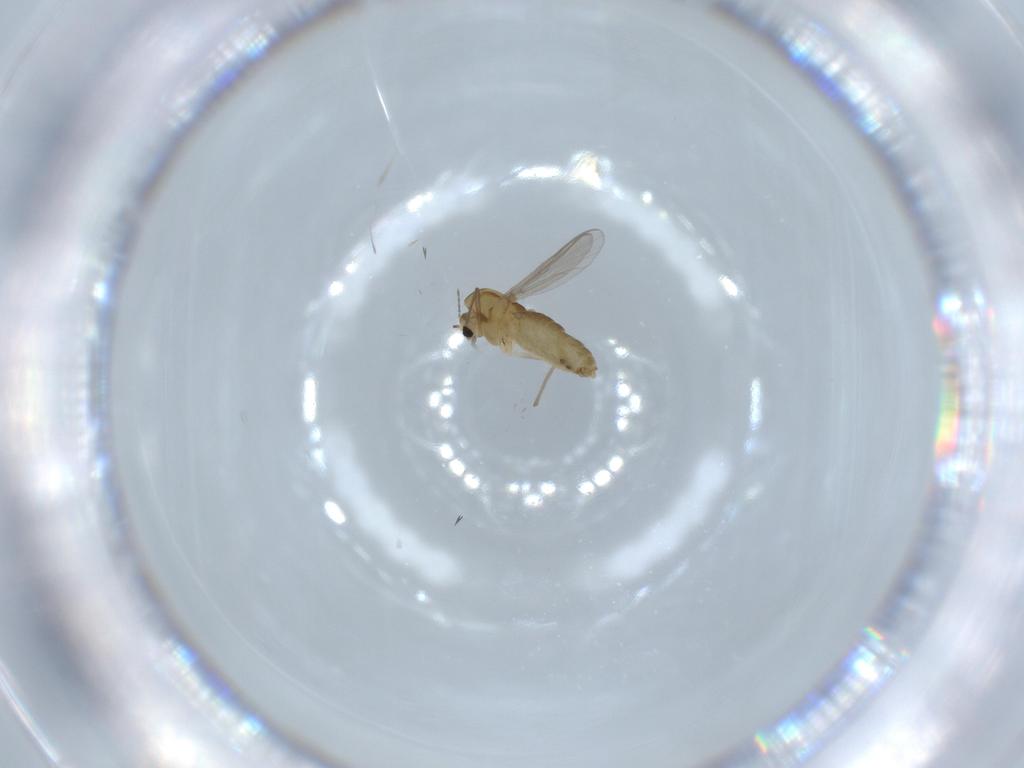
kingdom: Animalia
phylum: Arthropoda
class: Insecta
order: Diptera
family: Chironomidae
